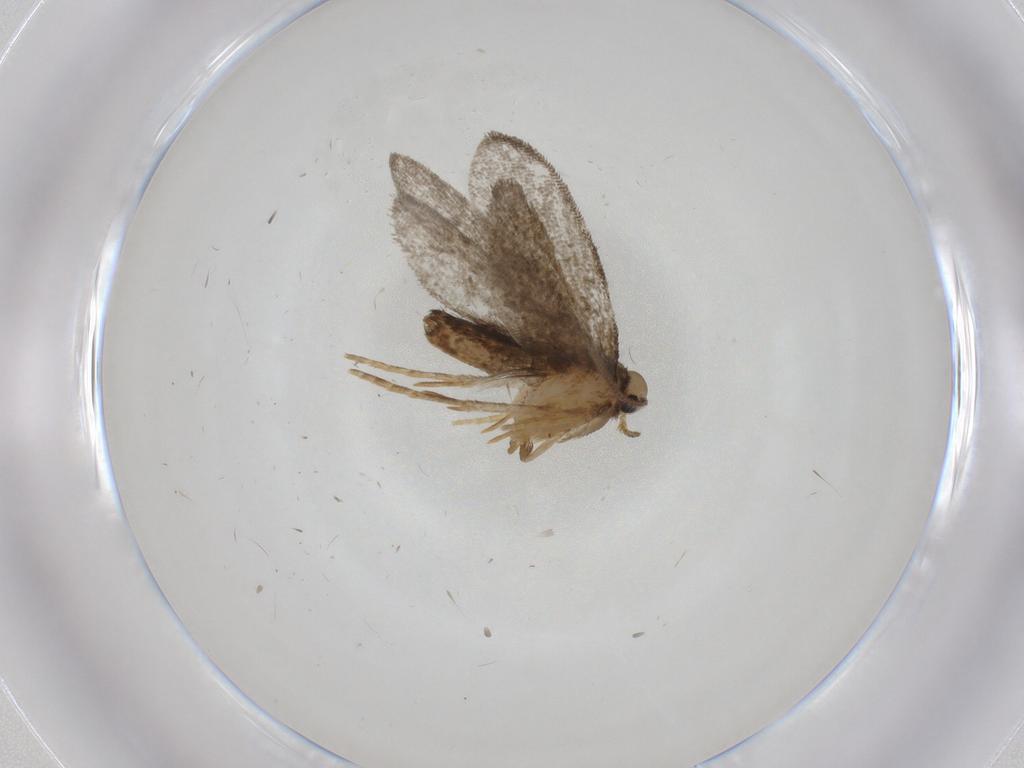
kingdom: Animalia
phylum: Arthropoda
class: Insecta
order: Lepidoptera
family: Psychidae
